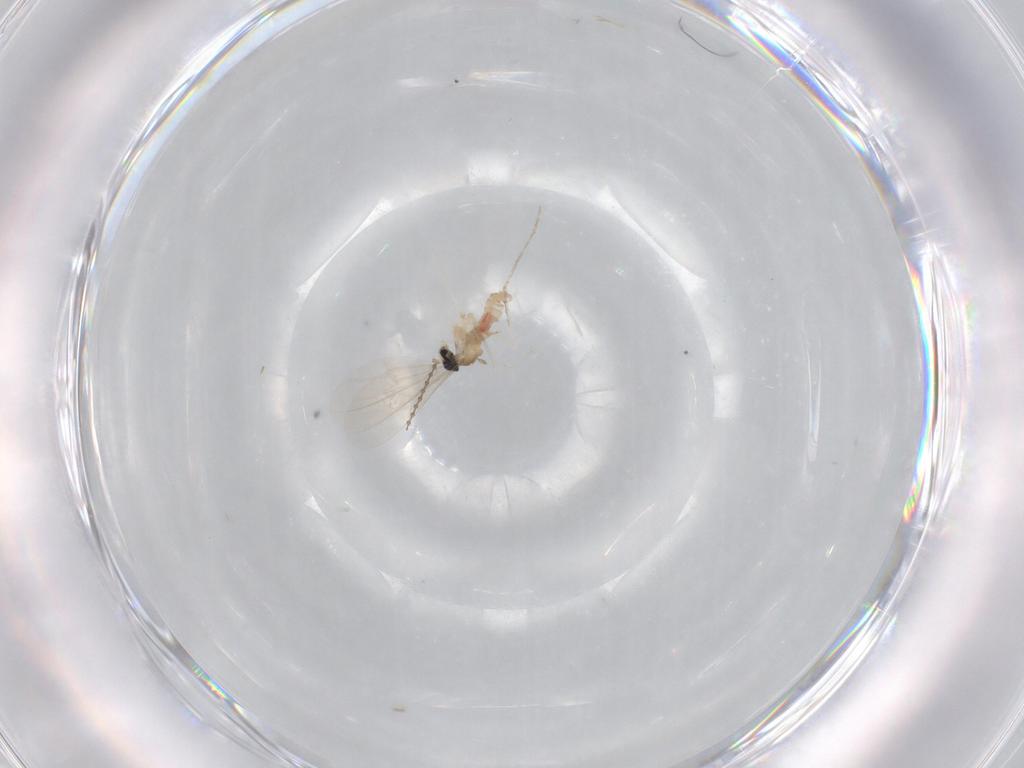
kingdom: Animalia
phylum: Arthropoda
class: Insecta
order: Diptera
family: Cecidomyiidae
